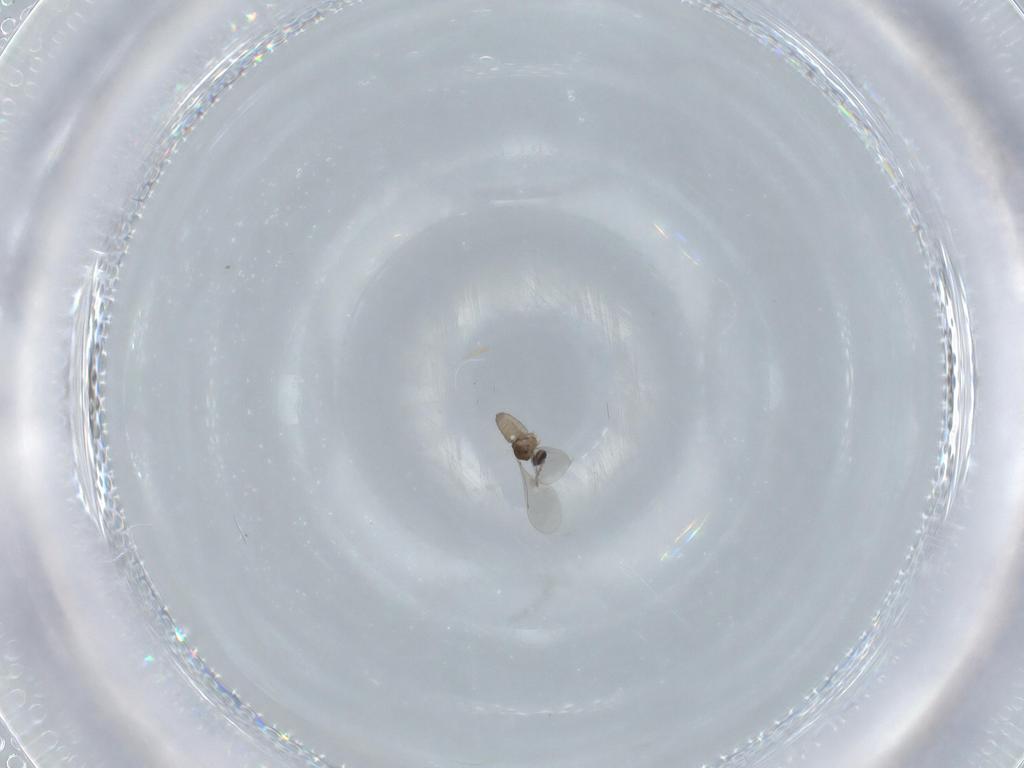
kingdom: Animalia
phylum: Arthropoda
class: Insecta
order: Diptera
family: Cecidomyiidae
